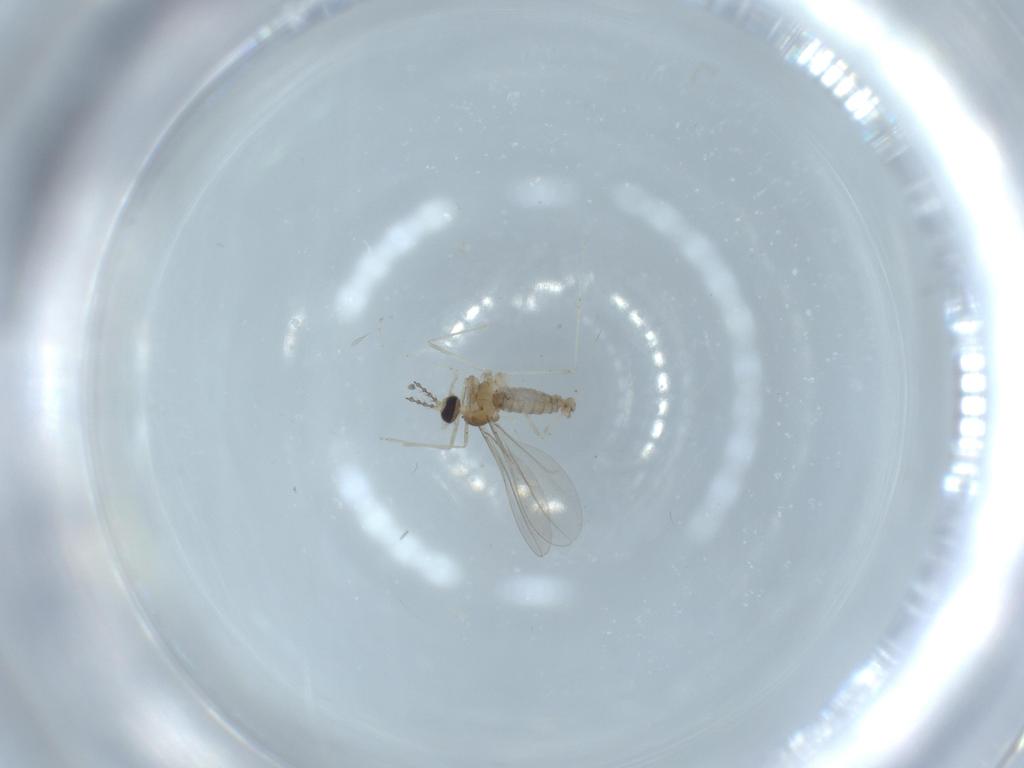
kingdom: Animalia
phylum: Arthropoda
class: Insecta
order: Diptera
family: Cecidomyiidae
